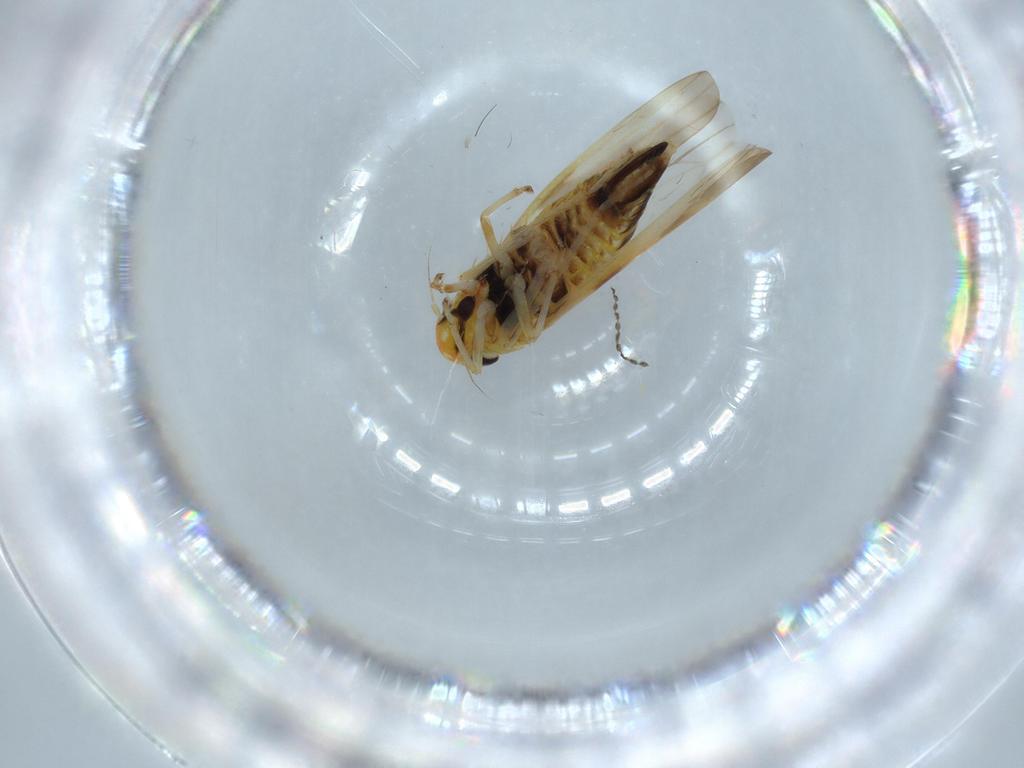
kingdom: Animalia
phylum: Arthropoda
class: Insecta
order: Hemiptera
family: Cicadellidae
